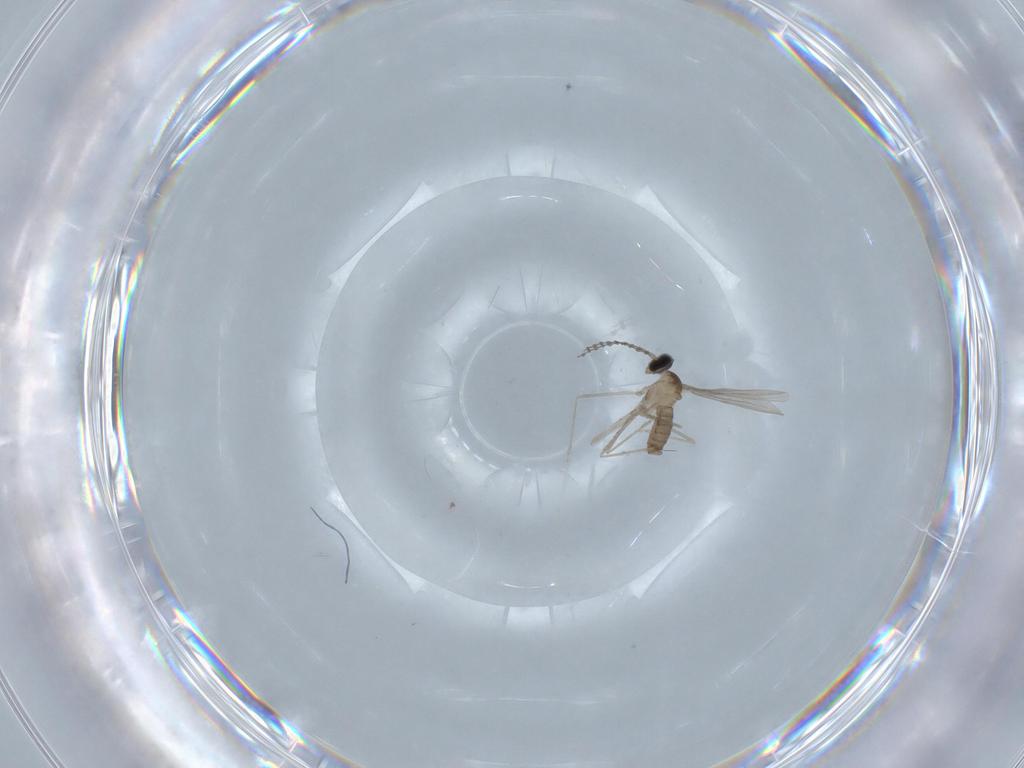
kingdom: Animalia
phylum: Arthropoda
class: Insecta
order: Diptera
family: Cecidomyiidae
